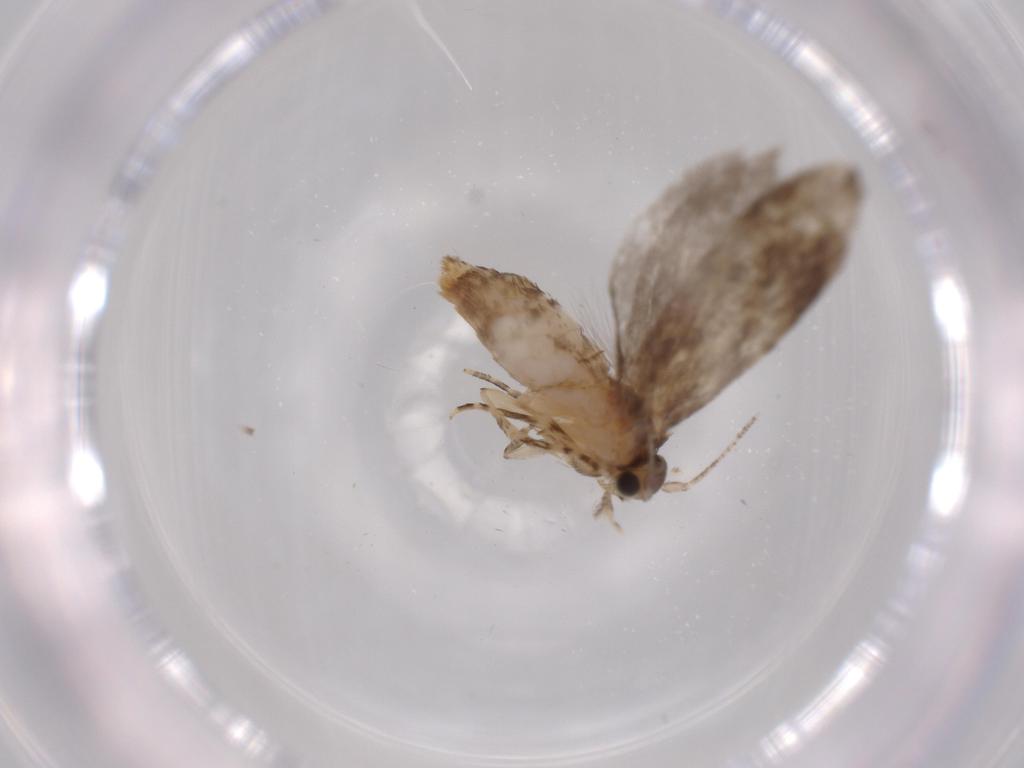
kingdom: Animalia
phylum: Arthropoda
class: Insecta
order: Lepidoptera
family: Tineidae
